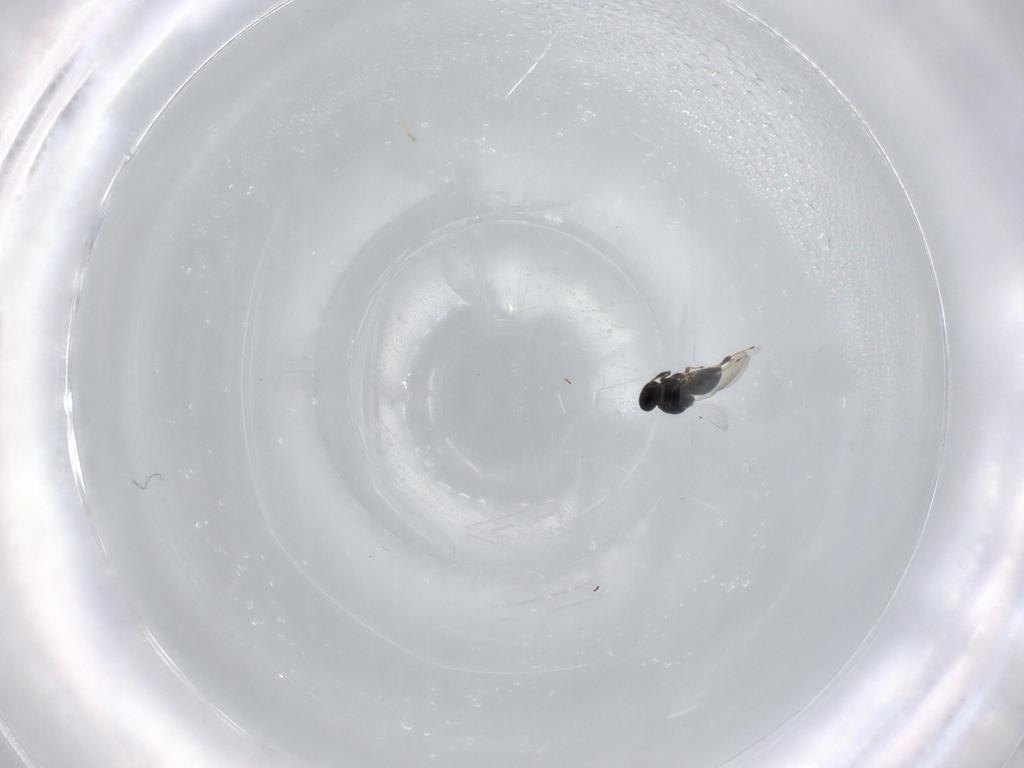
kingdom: Animalia
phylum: Arthropoda
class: Insecta
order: Hymenoptera
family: Platygastridae
